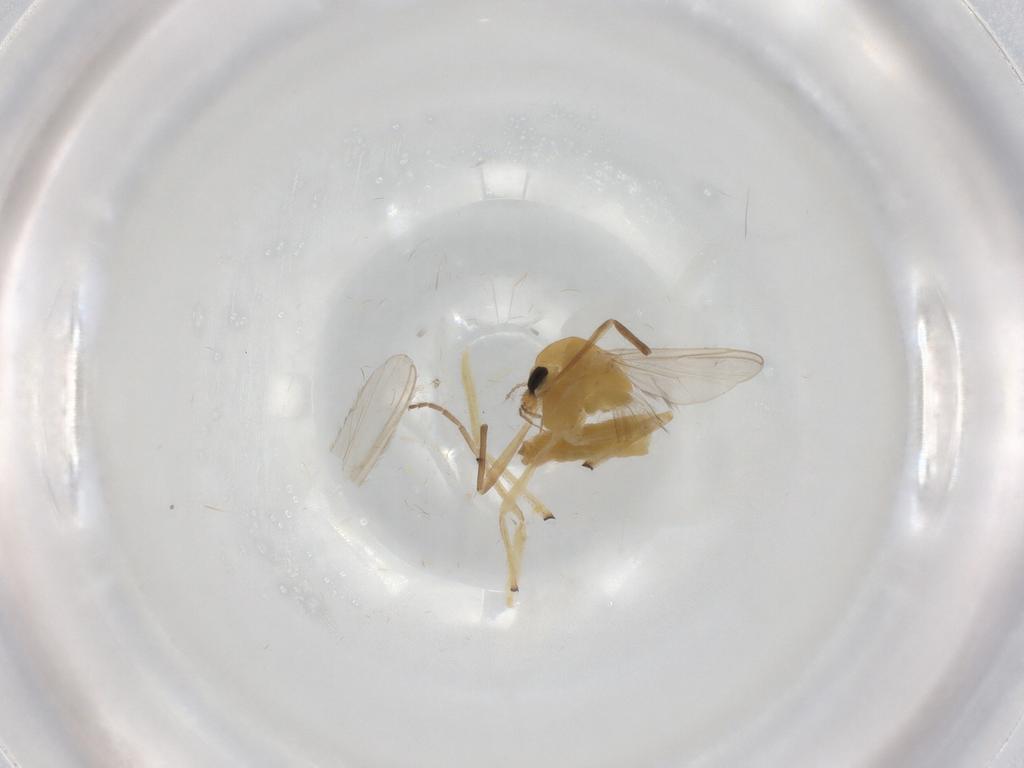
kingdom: Animalia
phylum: Arthropoda
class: Insecta
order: Diptera
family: Chironomidae
